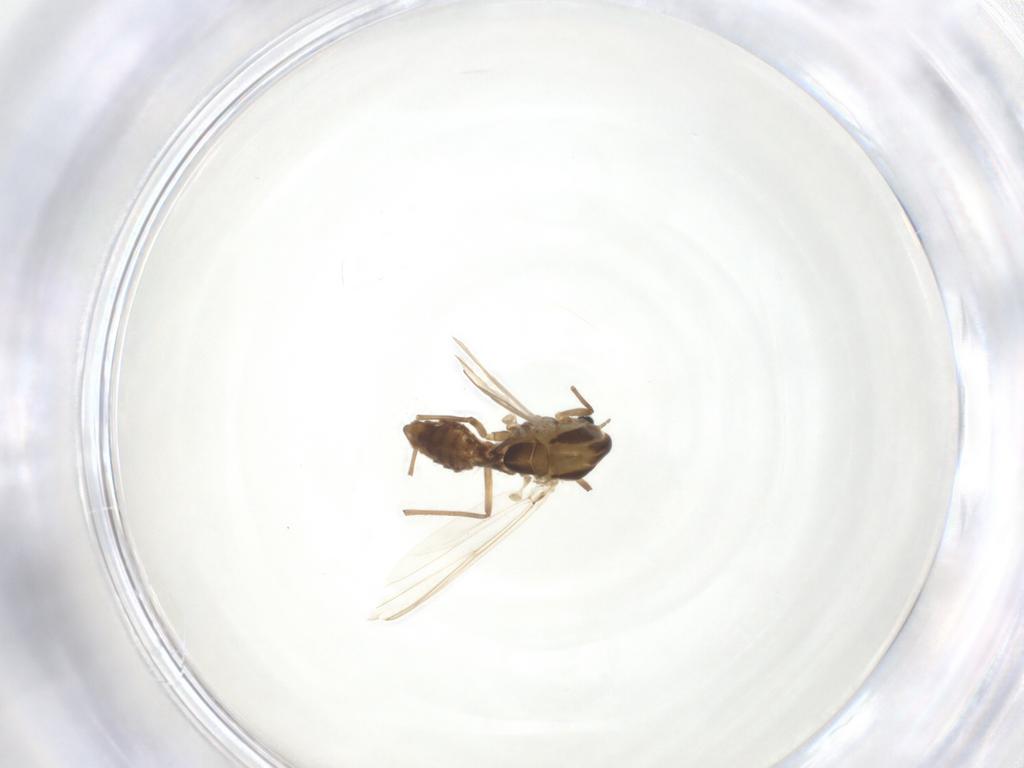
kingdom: Animalia
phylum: Arthropoda
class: Insecta
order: Diptera
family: Chironomidae
